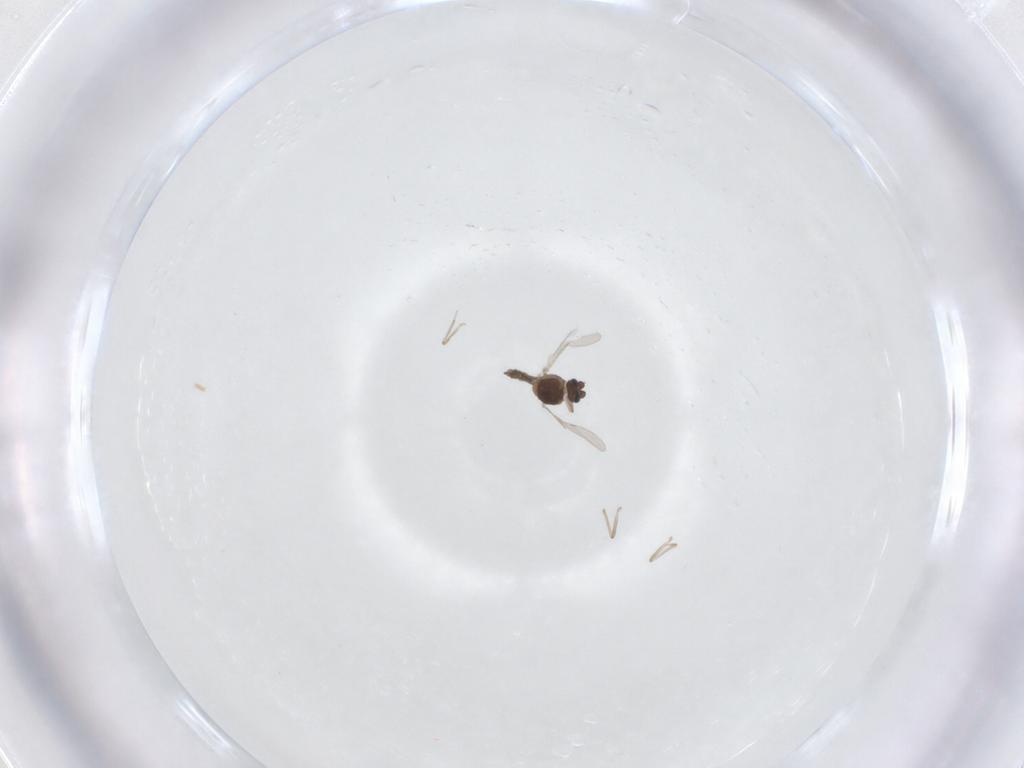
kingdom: Animalia
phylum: Arthropoda
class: Insecta
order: Diptera
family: Ceratopogonidae
